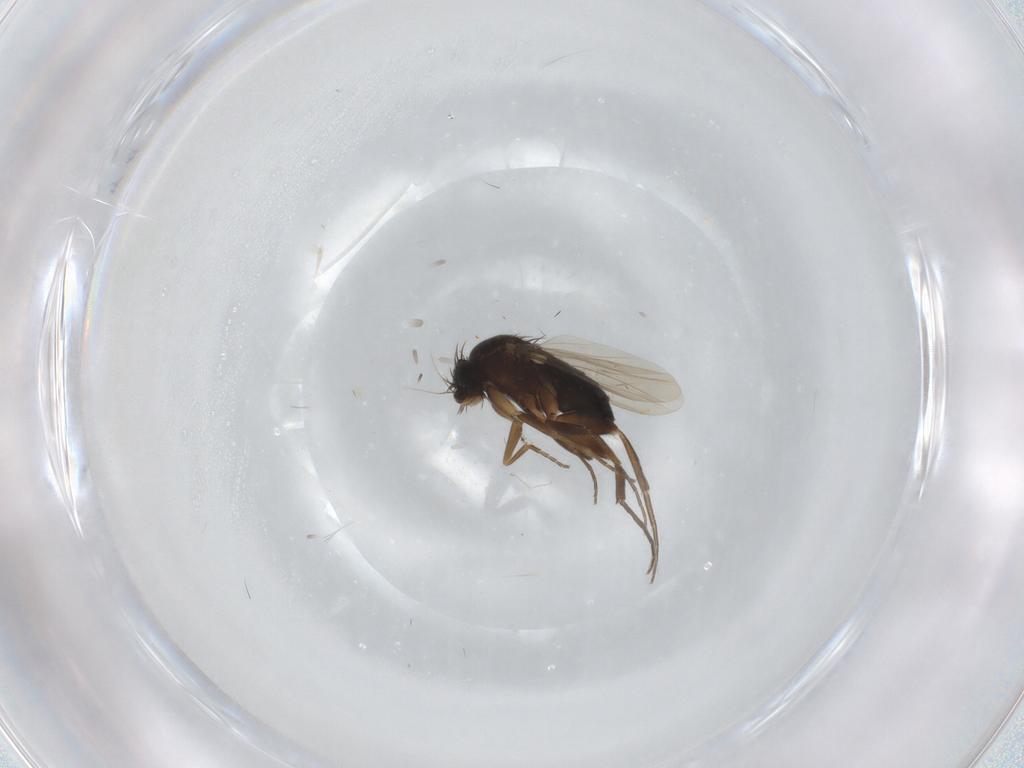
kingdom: Animalia
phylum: Arthropoda
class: Insecta
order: Diptera
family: Phoridae
